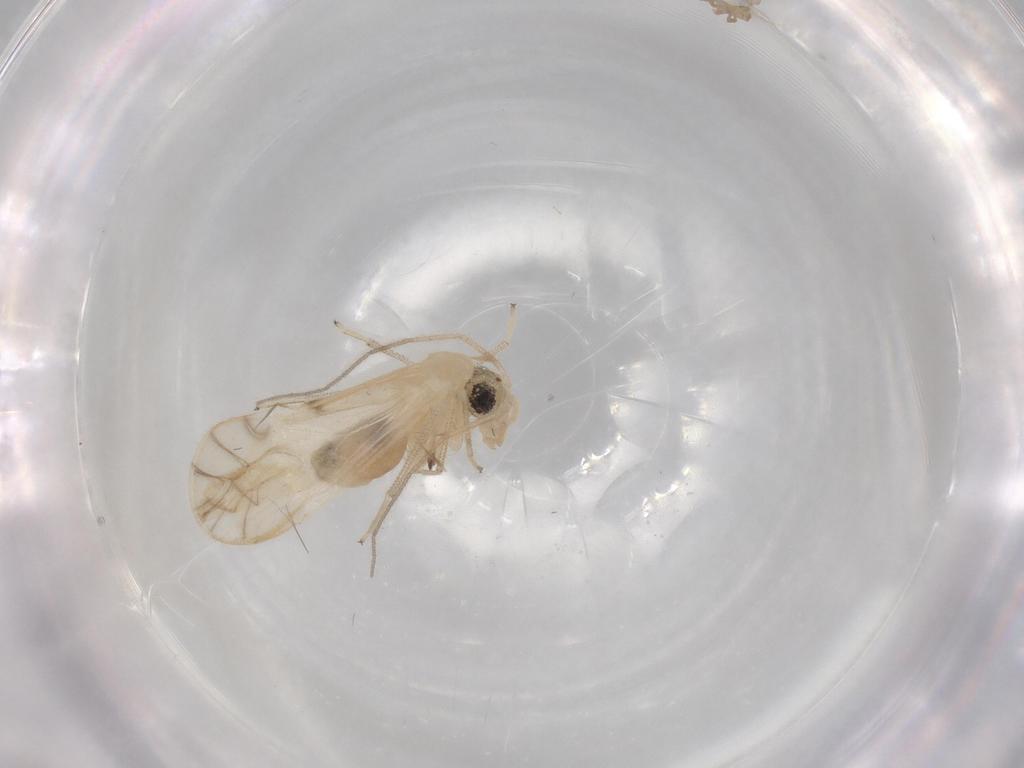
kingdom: Animalia
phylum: Arthropoda
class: Insecta
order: Psocodea
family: Caeciliusidae
